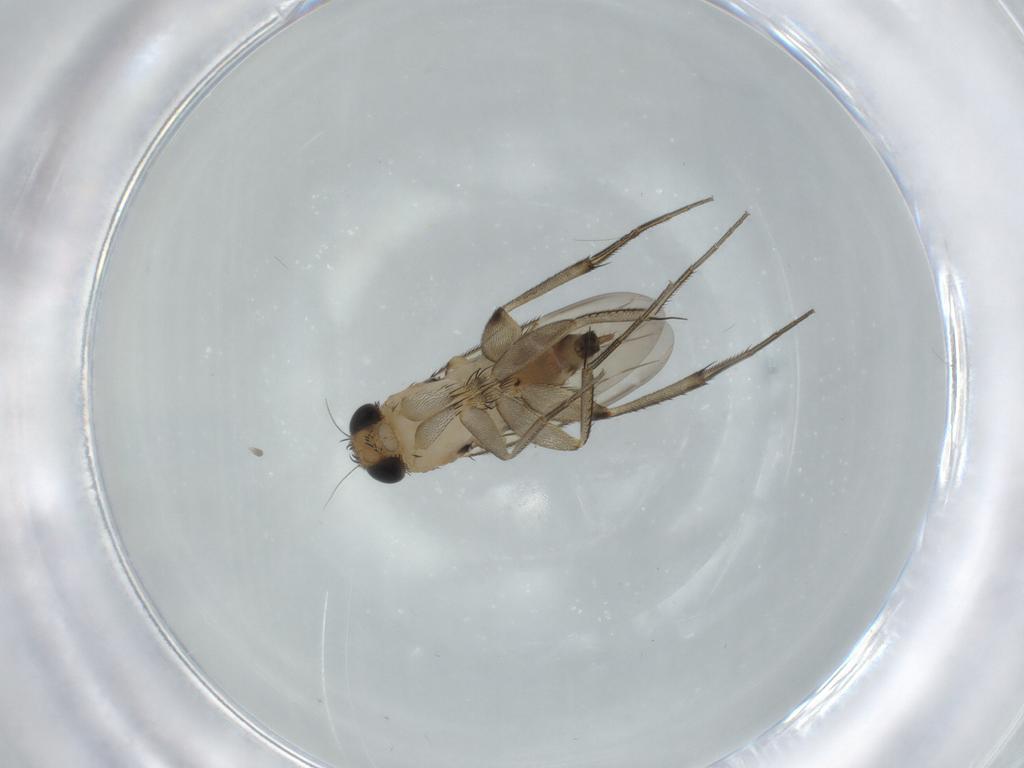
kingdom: Animalia
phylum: Arthropoda
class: Insecta
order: Diptera
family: Phoridae
